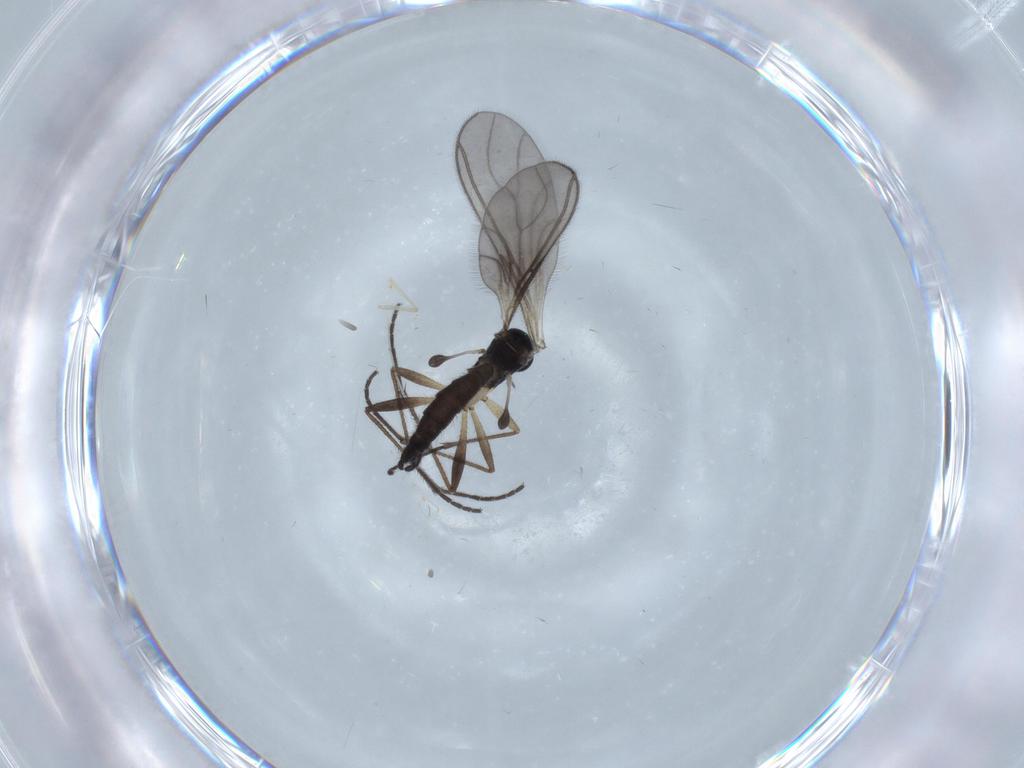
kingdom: Animalia
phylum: Arthropoda
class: Insecta
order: Diptera
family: Sciaridae
